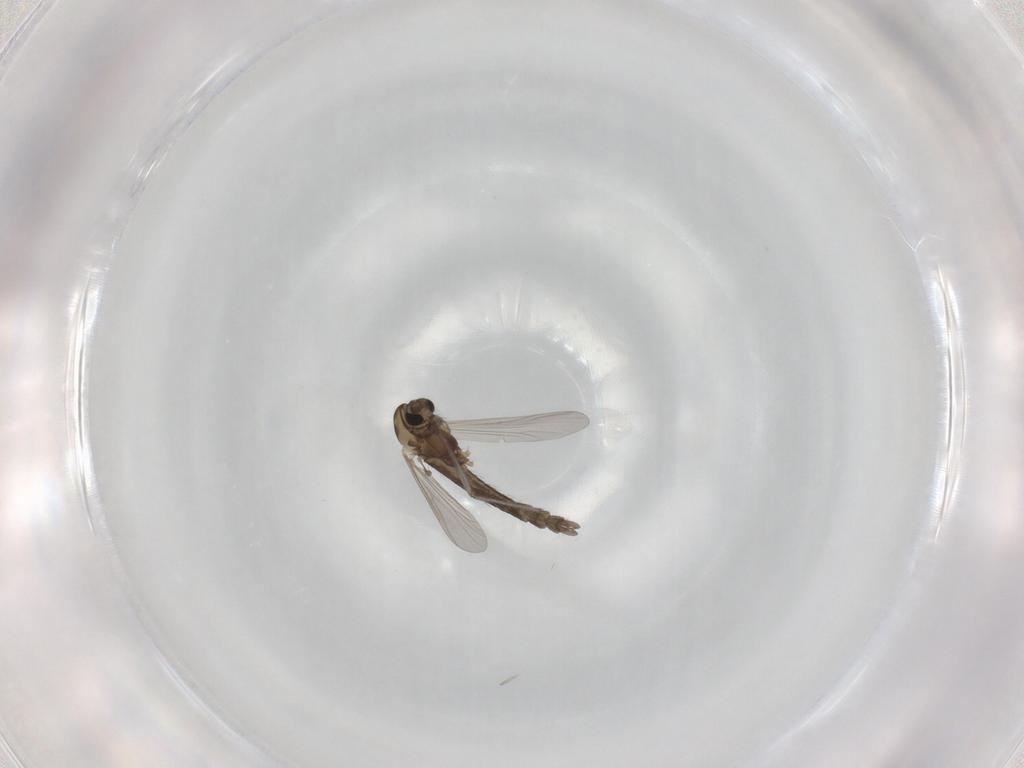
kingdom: Animalia
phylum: Arthropoda
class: Insecta
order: Diptera
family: Chironomidae
